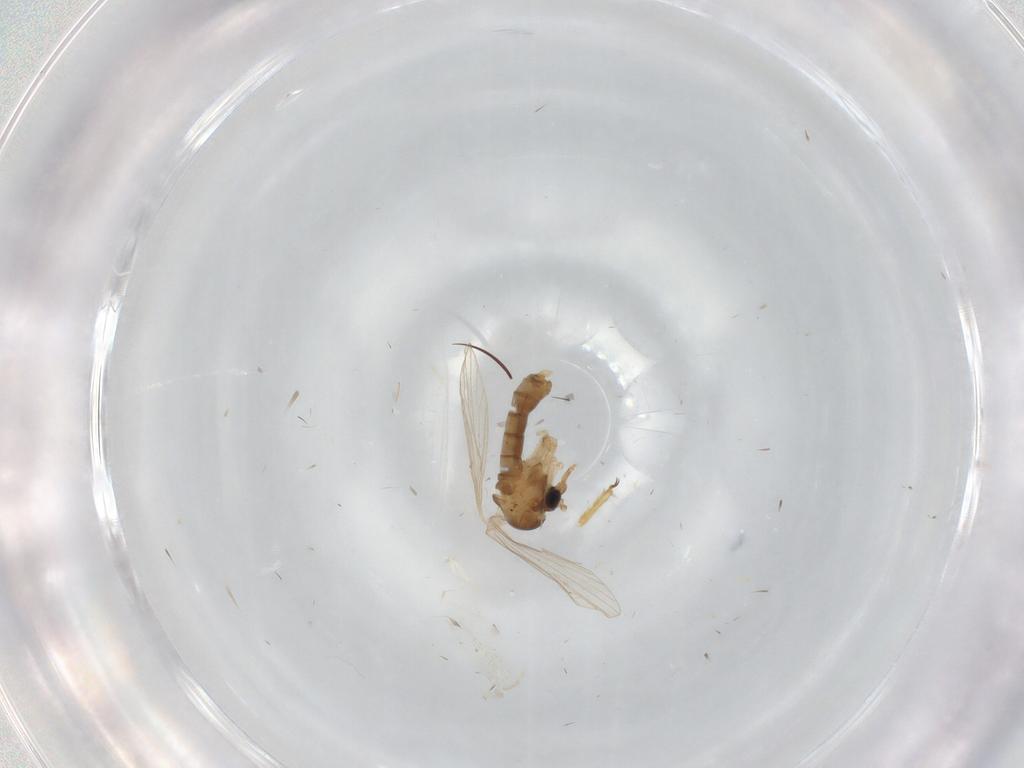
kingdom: Animalia
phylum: Arthropoda
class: Insecta
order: Diptera
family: Psychodidae
